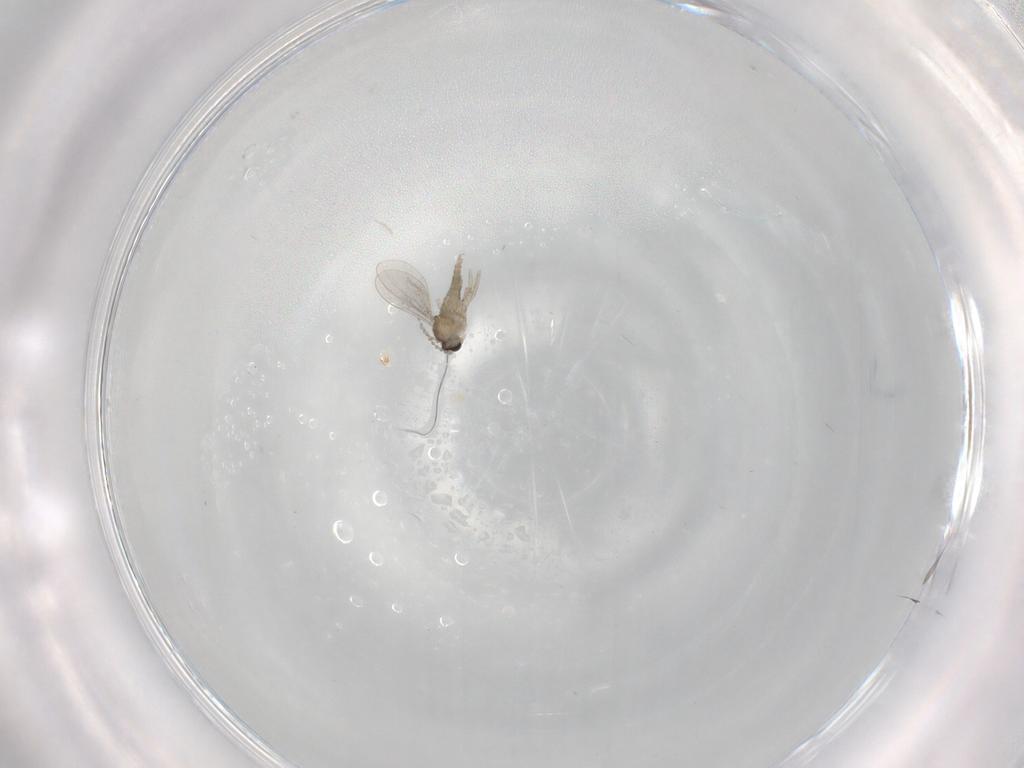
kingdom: Animalia
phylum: Arthropoda
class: Insecta
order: Diptera
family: Cecidomyiidae
